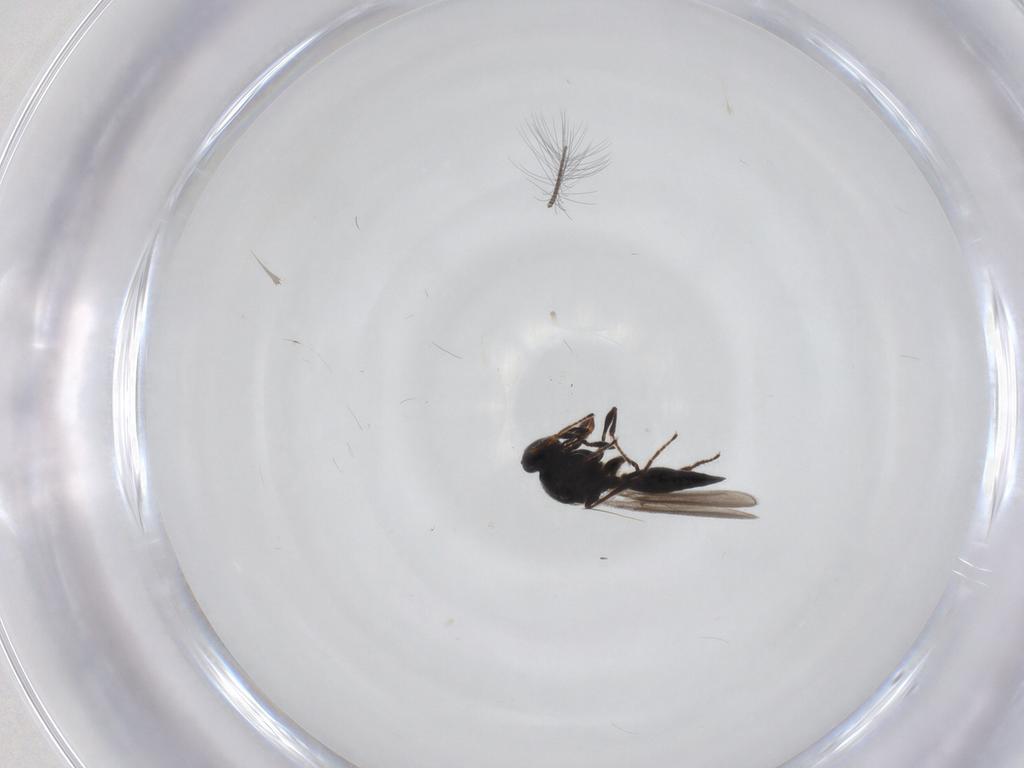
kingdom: Animalia
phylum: Arthropoda
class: Insecta
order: Hymenoptera
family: Platygastridae
